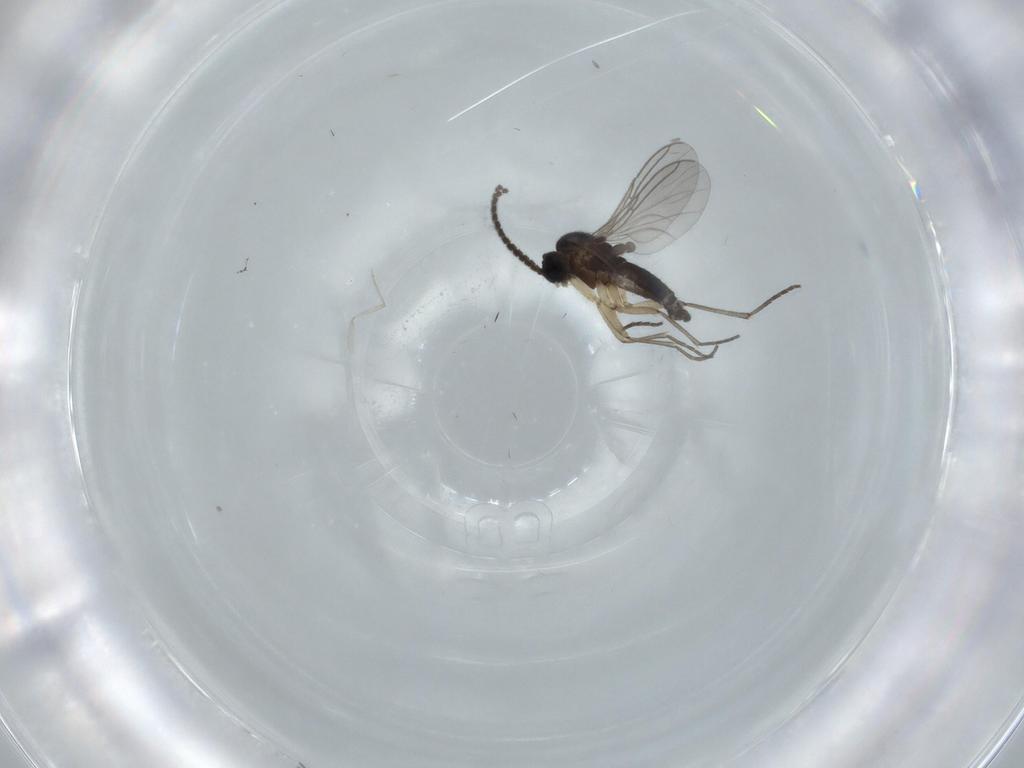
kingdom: Animalia
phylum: Arthropoda
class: Insecta
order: Diptera
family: Sciaridae
